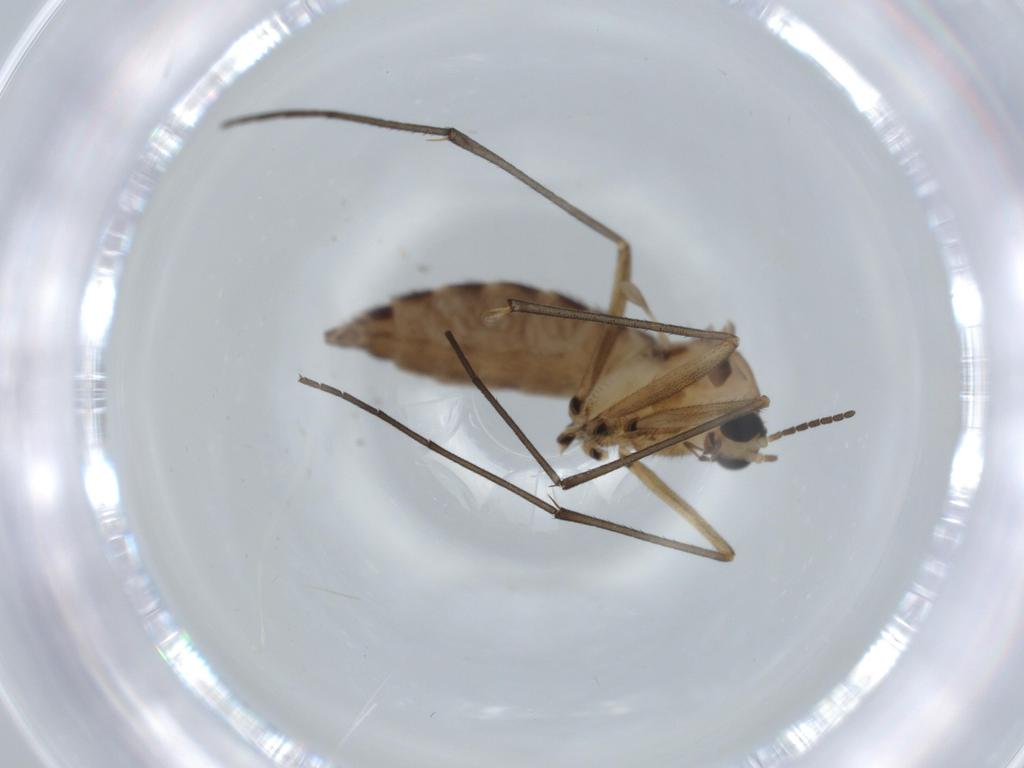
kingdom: Animalia
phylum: Arthropoda
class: Insecta
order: Diptera
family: Sciaridae
